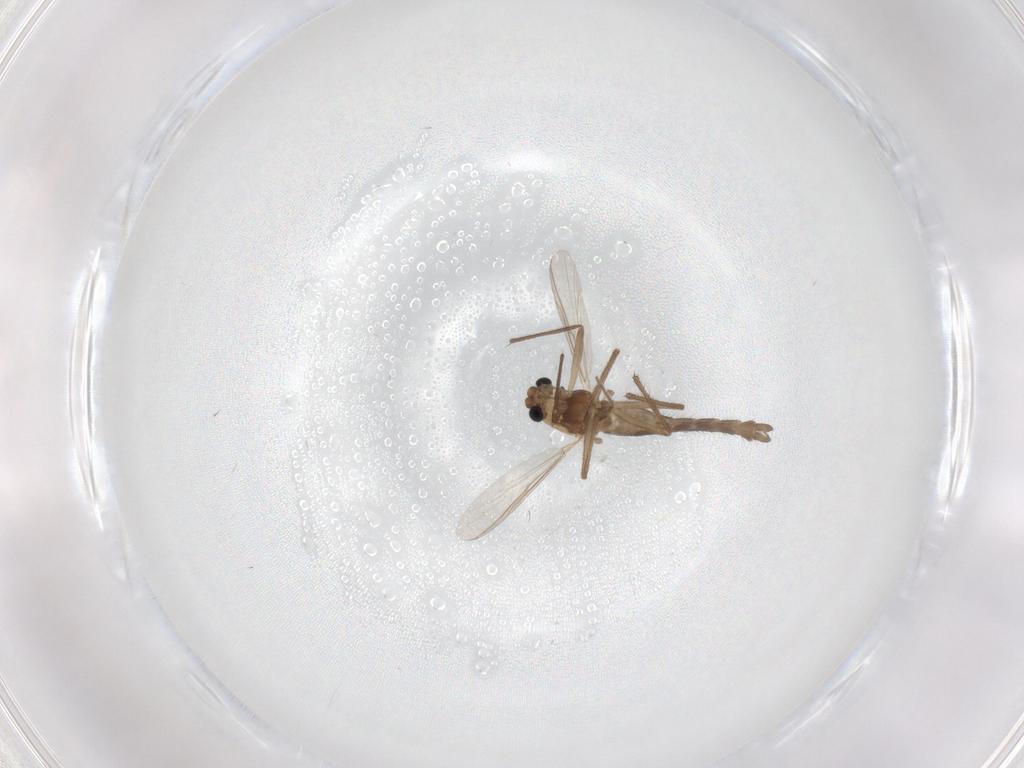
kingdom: Animalia
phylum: Arthropoda
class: Insecta
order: Diptera
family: Chironomidae
